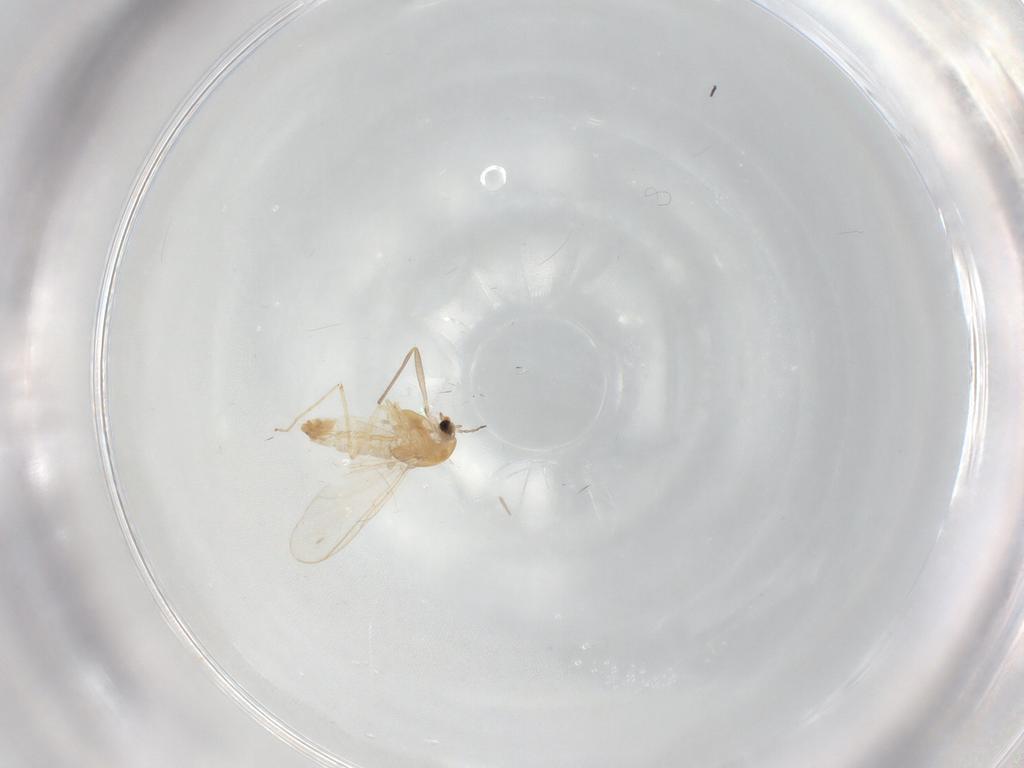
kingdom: Animalia
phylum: Arthropoda
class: Insecta
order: Diptera
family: Chironomidae
